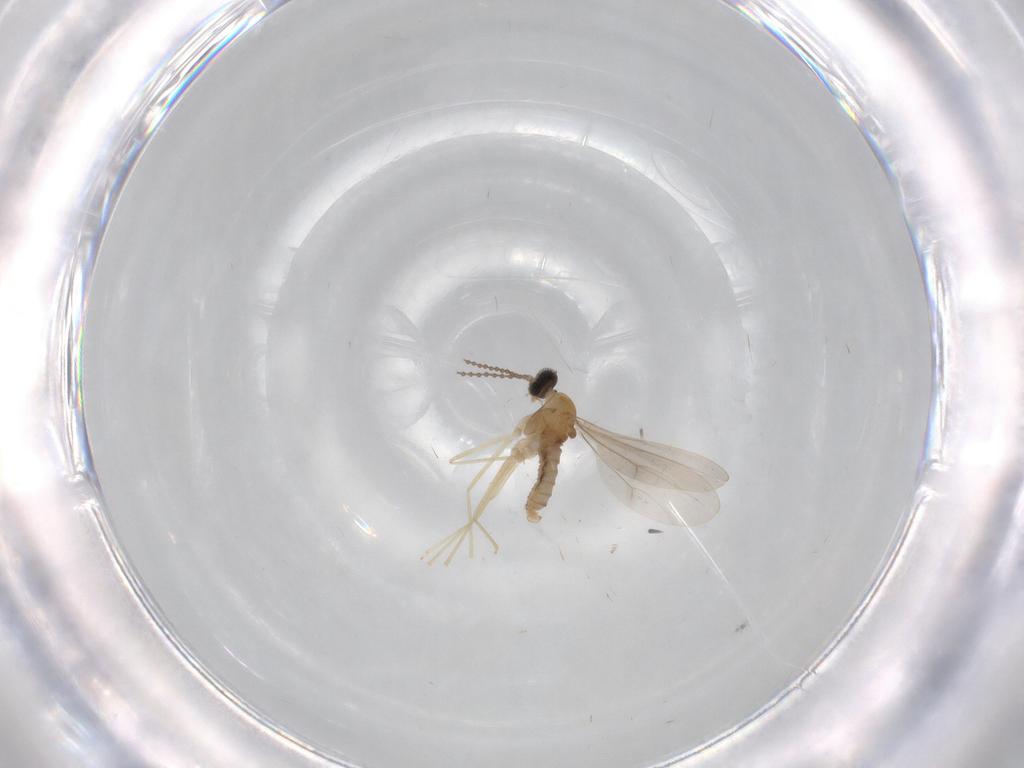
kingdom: Animalia
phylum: Arthropoda
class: Insecta
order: Diptera
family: Cecidomyiidae
